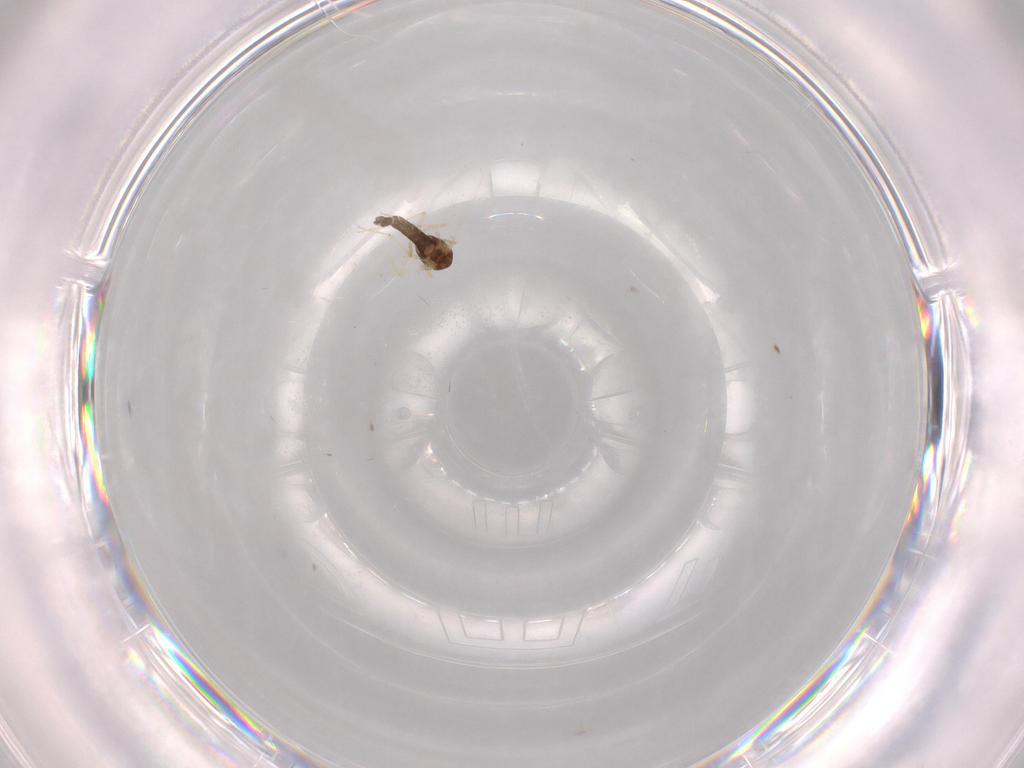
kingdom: Animalia
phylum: Arthropoda
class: Insecta
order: Diptera
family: Chironomidae
